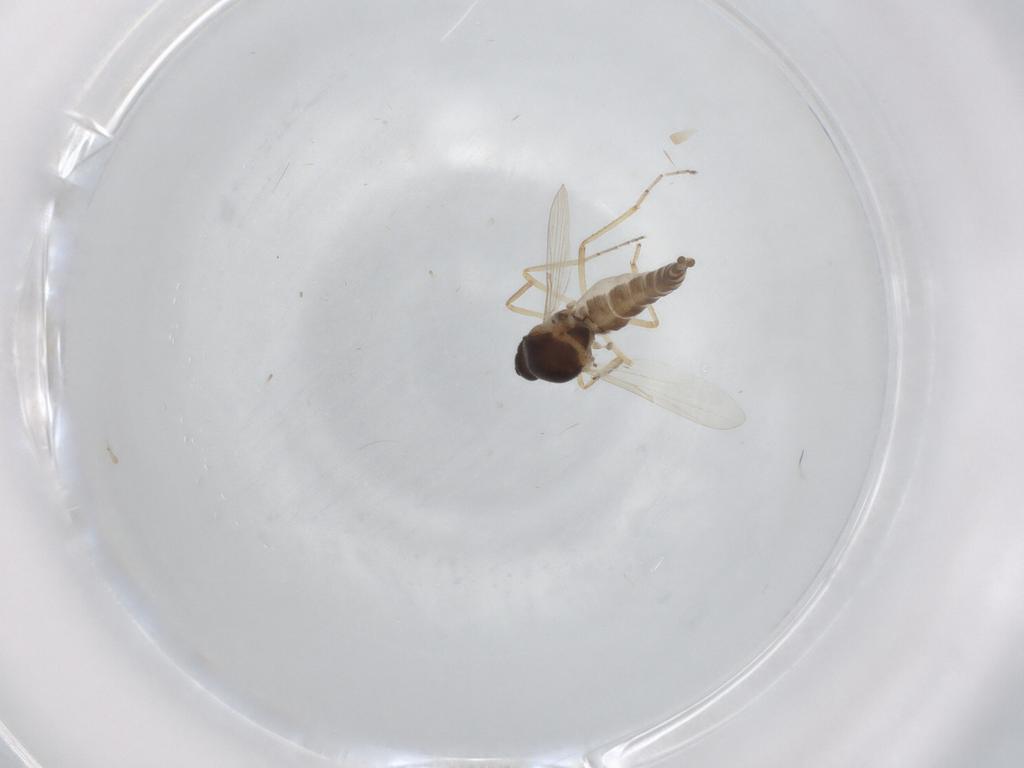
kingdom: Animalia
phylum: Arthropoda
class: Insecta
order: Diptera
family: Ceratopogonidae
